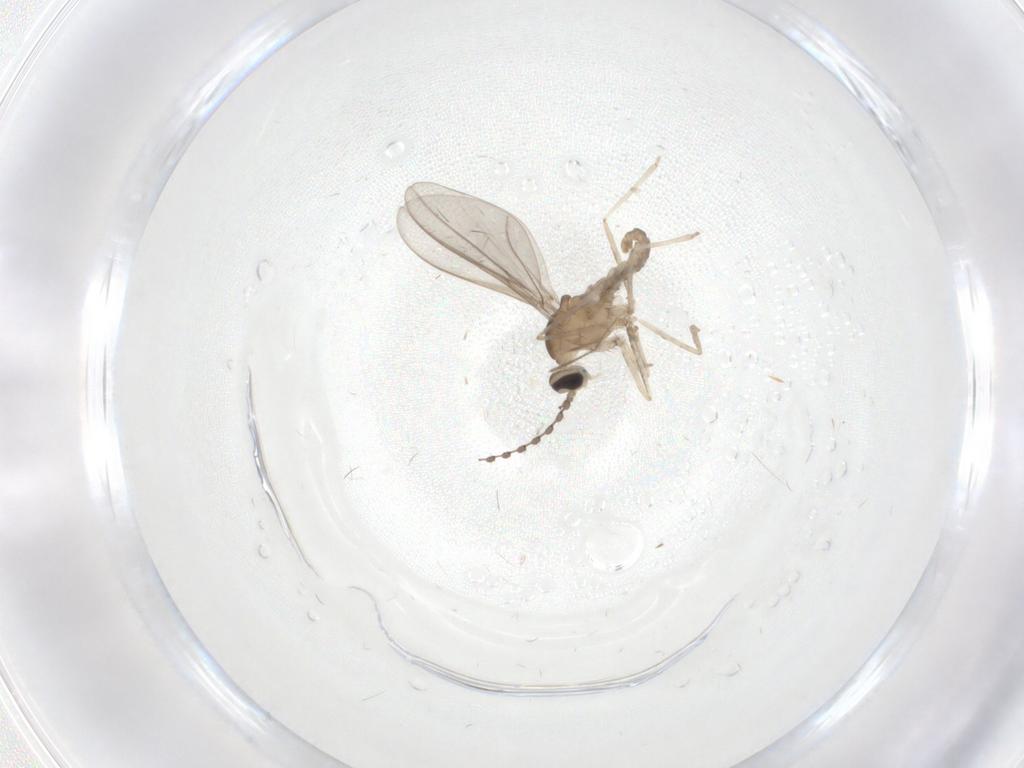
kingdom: Animalia
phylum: Arthropoda
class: Insecta
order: Diptera
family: Cecidomyiidae
